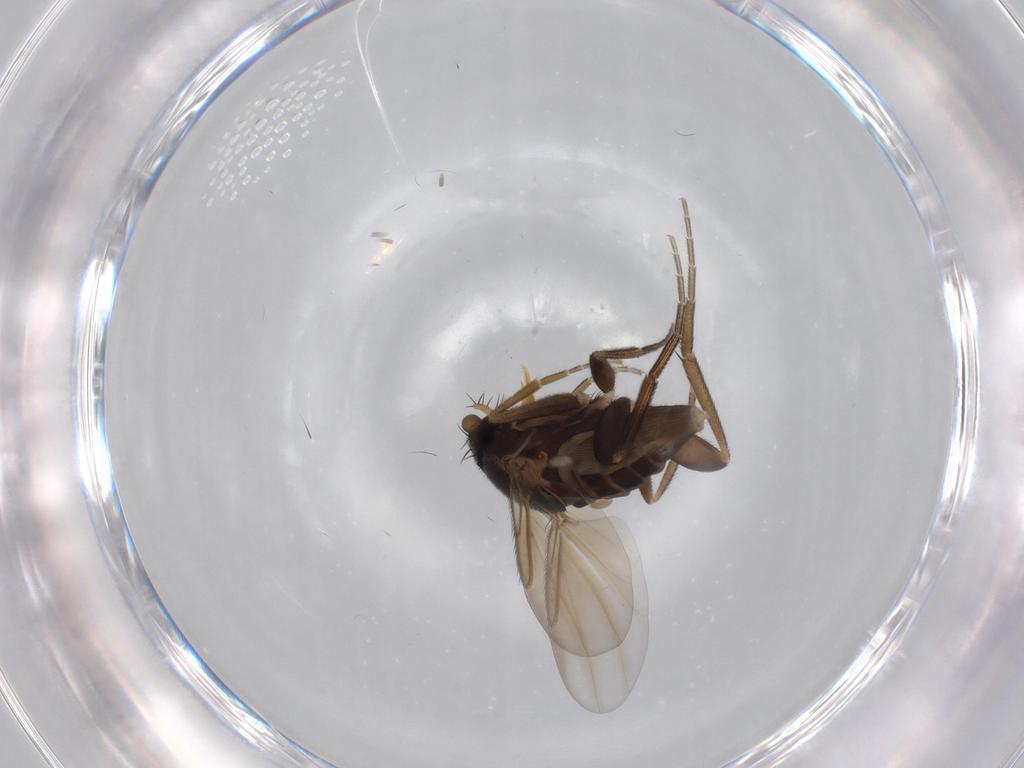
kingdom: Animalia
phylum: Arthropoda
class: Insecta
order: Diptera
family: Phoridae
